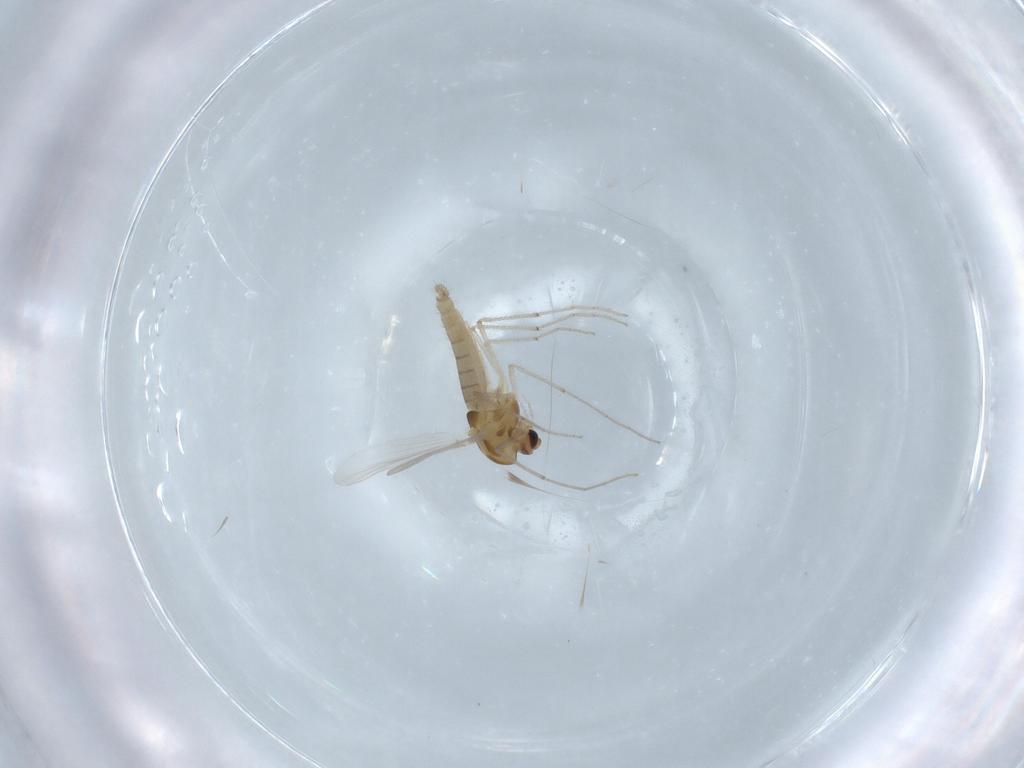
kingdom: Animalia
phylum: Arthropoda
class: Insecta
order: Diptera
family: Chironomidae
